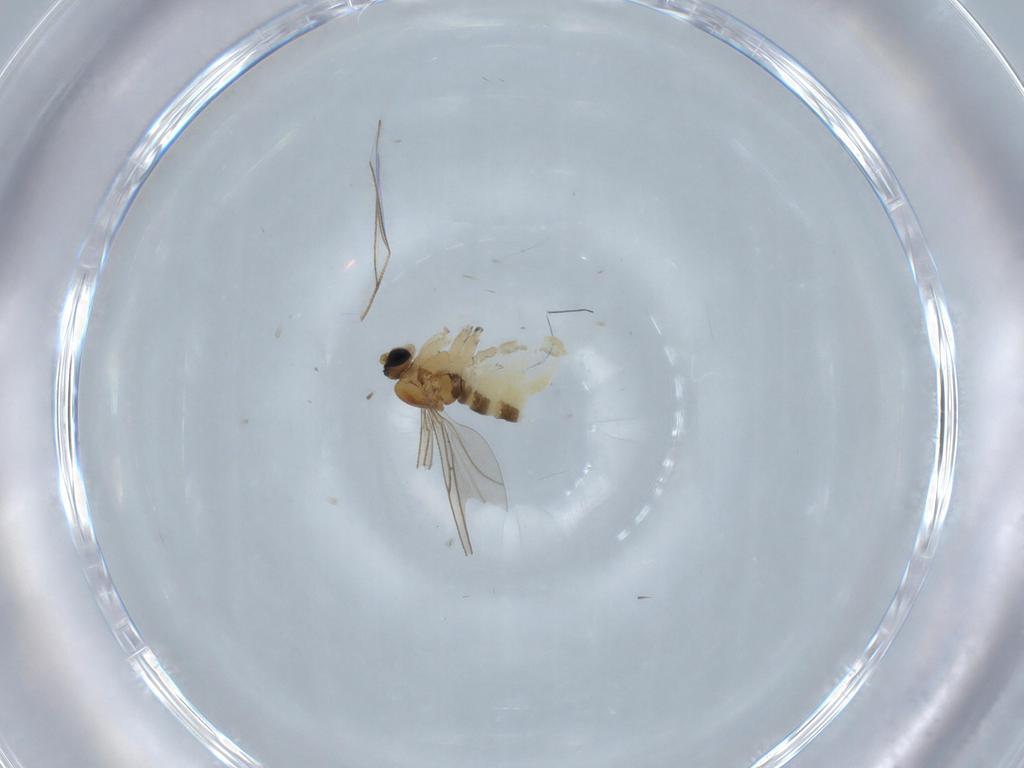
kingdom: Animalia
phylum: Arthropoda
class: Insecta
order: Diptera
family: Sciaridae
